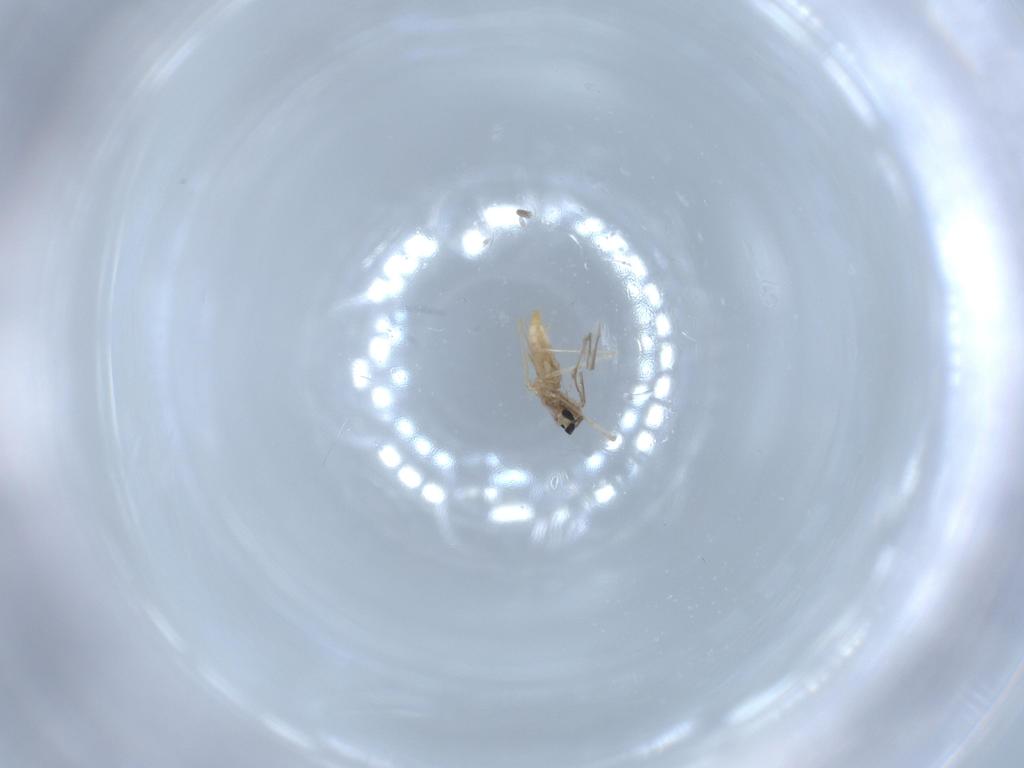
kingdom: Animalia
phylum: Arthropoda
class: Insecta
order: Diptera
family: Cecidomyiidae
